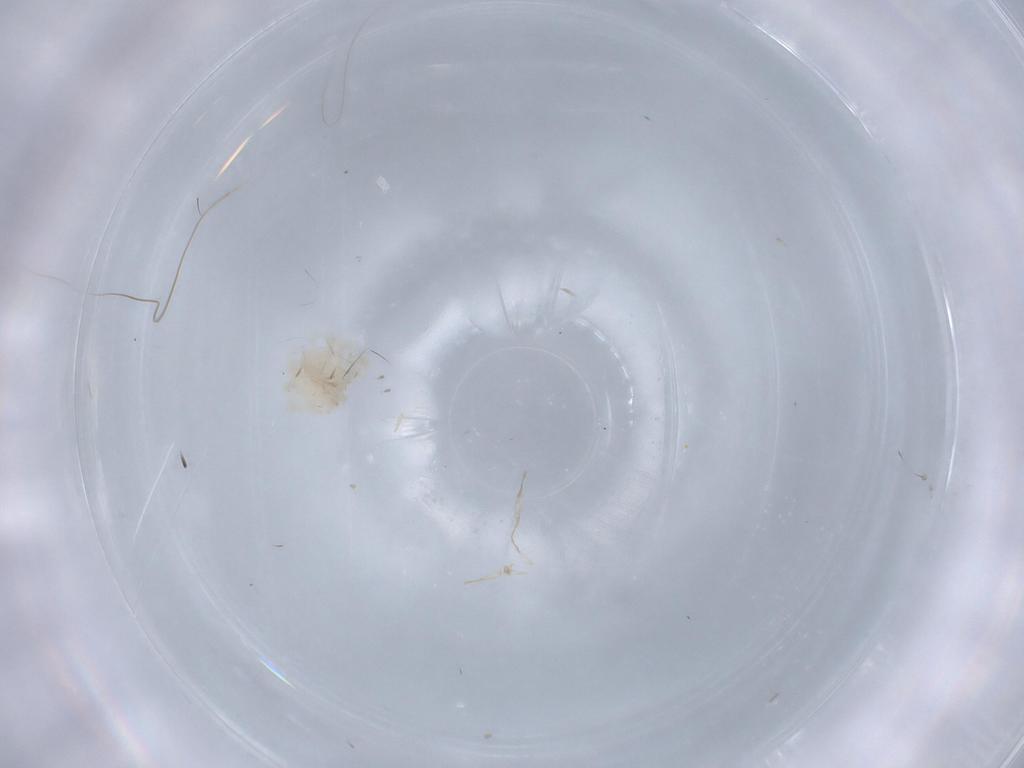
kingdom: Animalia
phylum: Arthropoda
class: Arachnida
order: Trombidiformes
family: Anystidae
